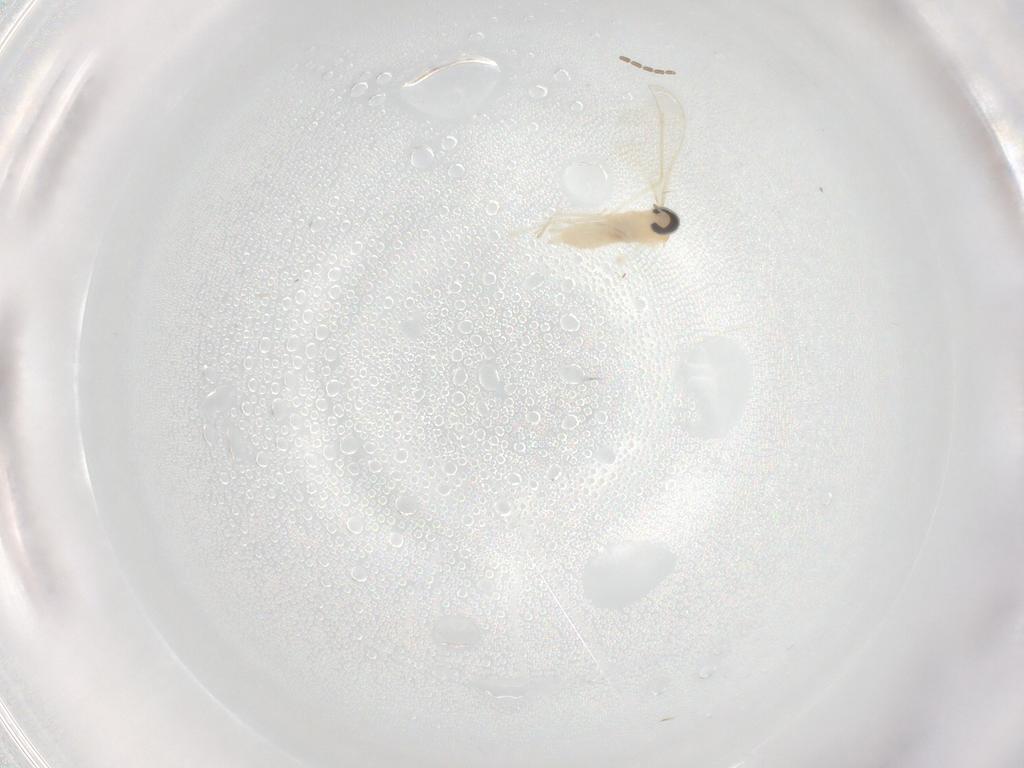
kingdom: Animalia
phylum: Arthropoda
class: Insecta
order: Diptera
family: Cecidomyiidae
